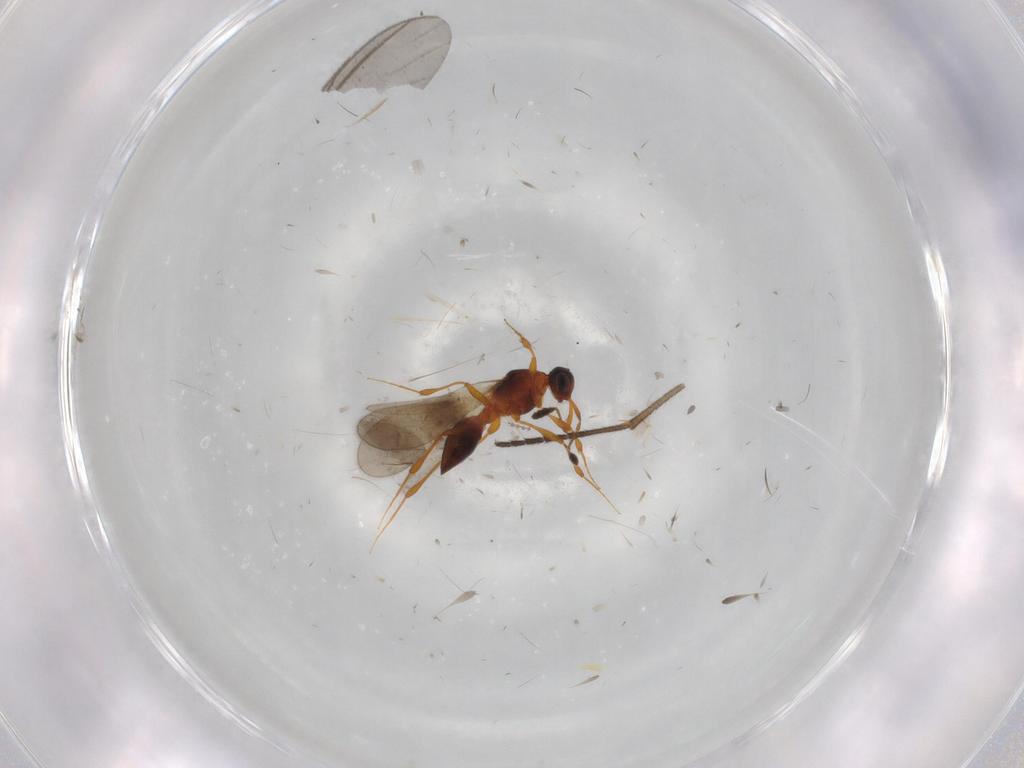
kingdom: Animalia
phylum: Arthropoda
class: Insecta
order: Hymenoptera
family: Platygastridae
